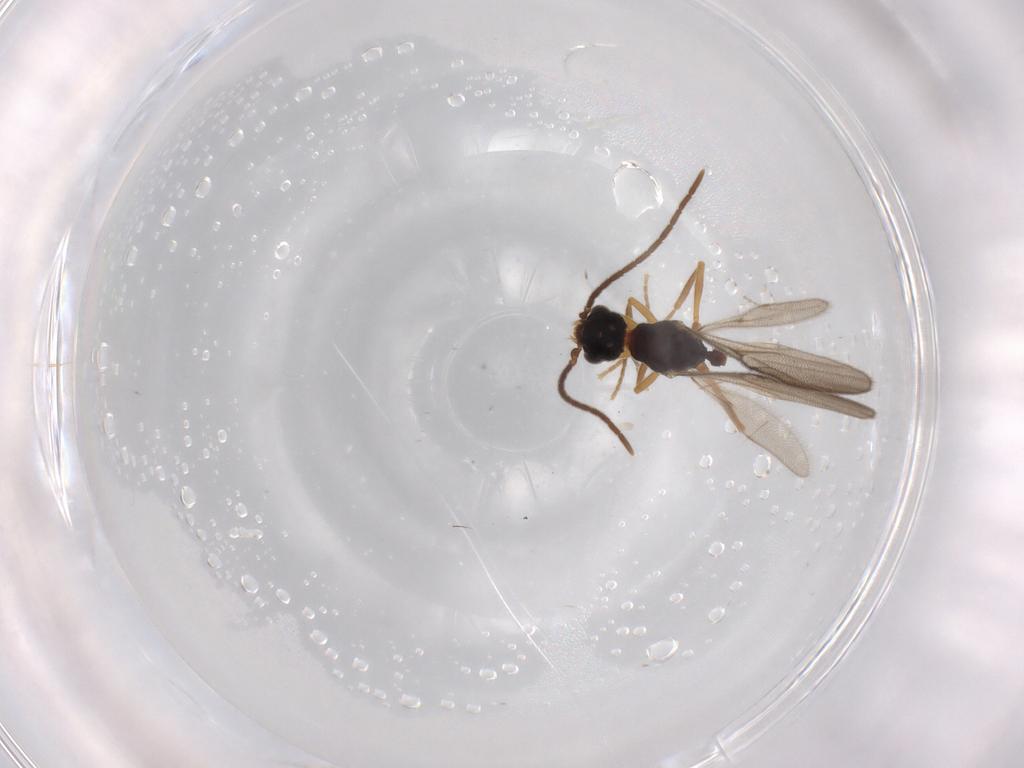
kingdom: Animalia
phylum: Arthropoda
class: Insecta
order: Hymenoptera
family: Formicidae
